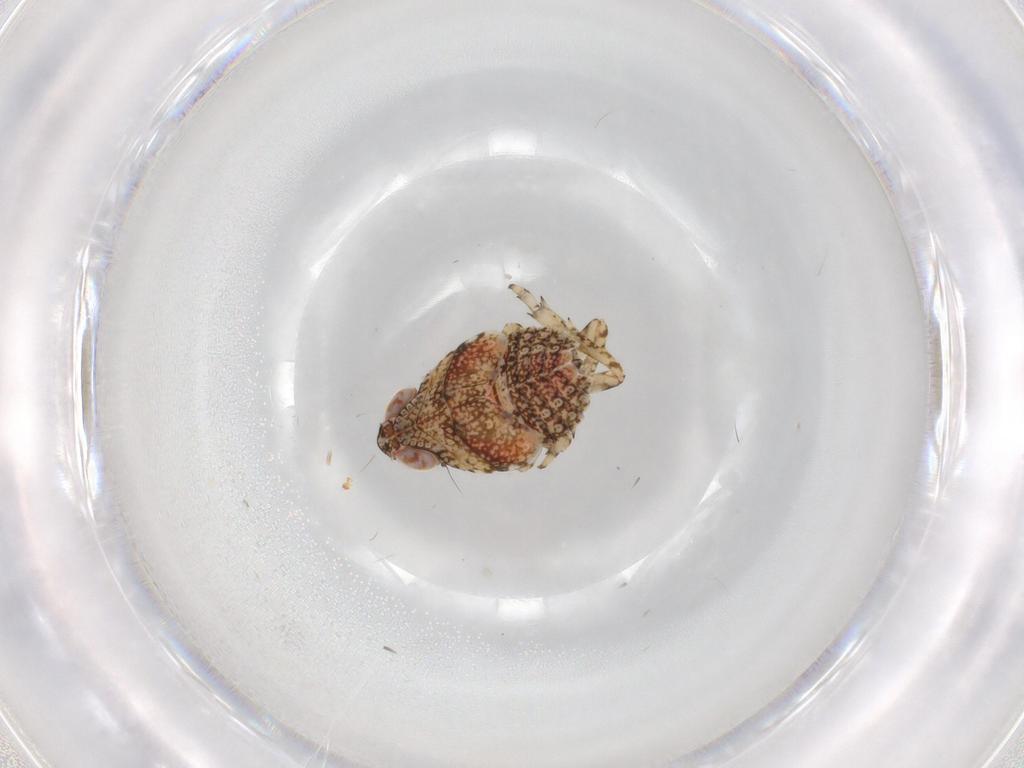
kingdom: Animalia
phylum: Arthropoda
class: Insecta
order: Hemiptera
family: Issidae
